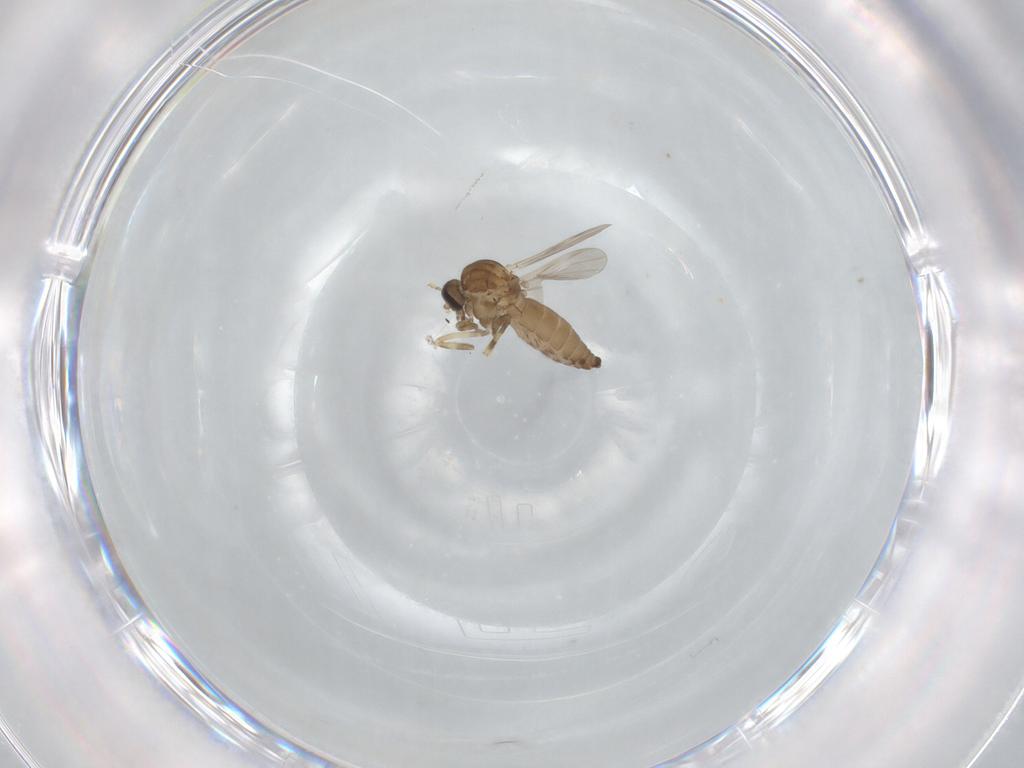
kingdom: Animalia
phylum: Arthropoda
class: Insecta
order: Diptera
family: Ceratopogonidae
